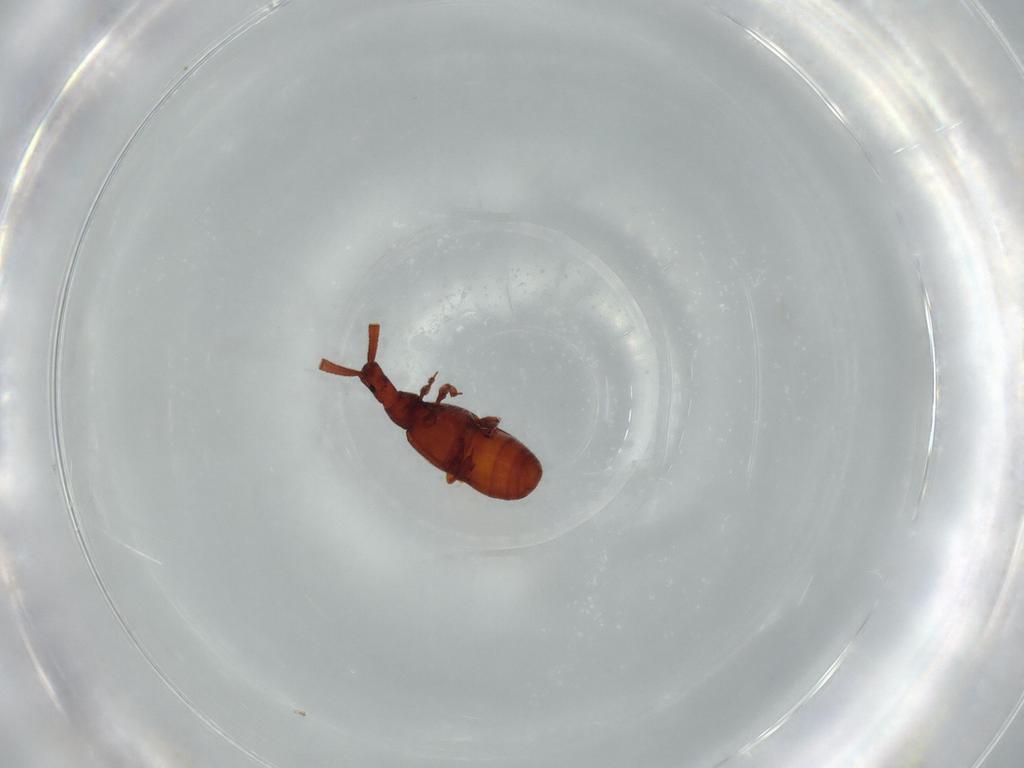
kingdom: Animalia
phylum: Arthropoda
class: Insecta
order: Coleoptera
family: Staphylinidae
